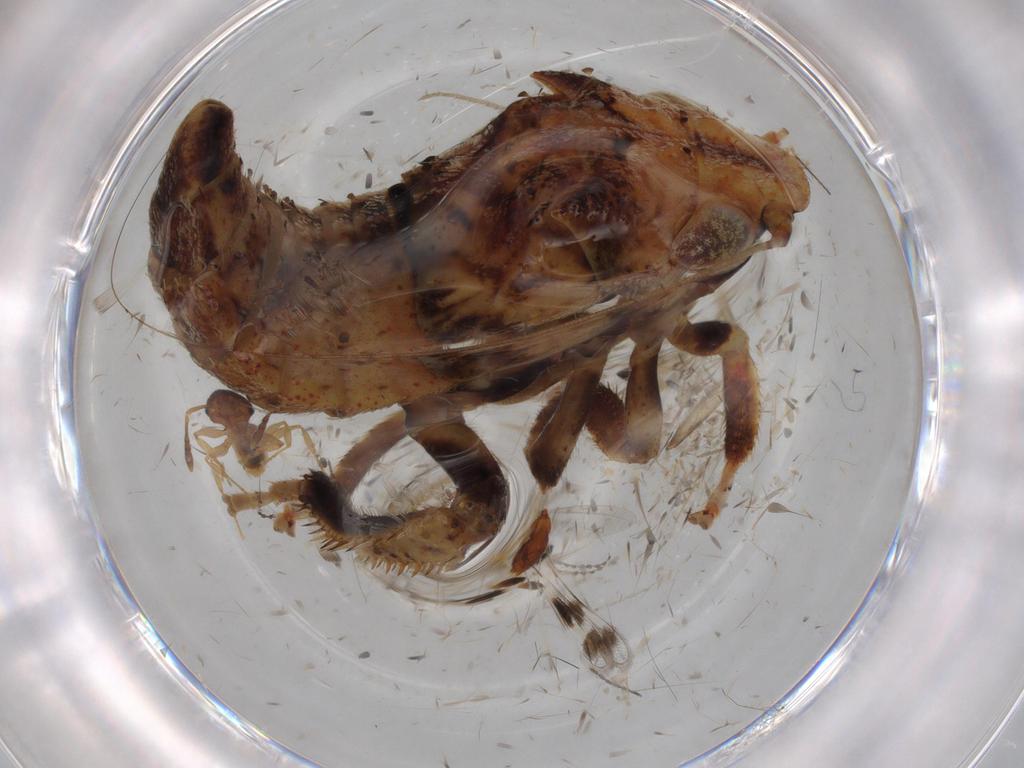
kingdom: Animalia
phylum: Arthropoda
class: Insecta
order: Hemiptera
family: Cicadellidae
